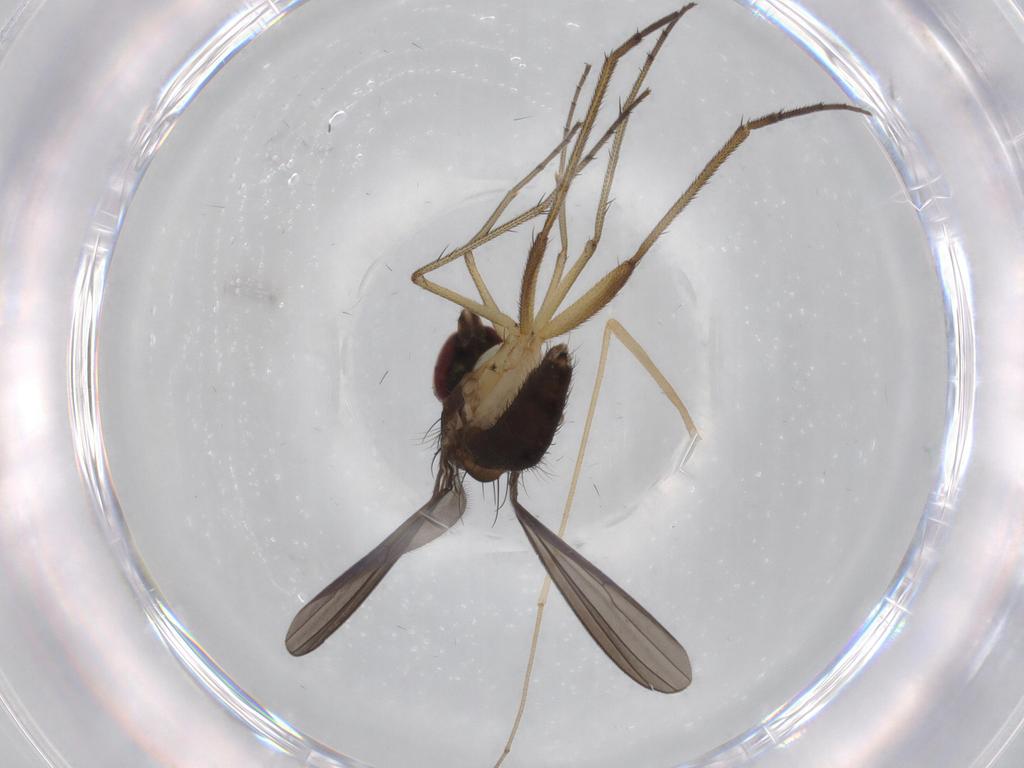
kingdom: Animalia
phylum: Arthropoda
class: Insecta
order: Diptera
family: Dolichopodidae
